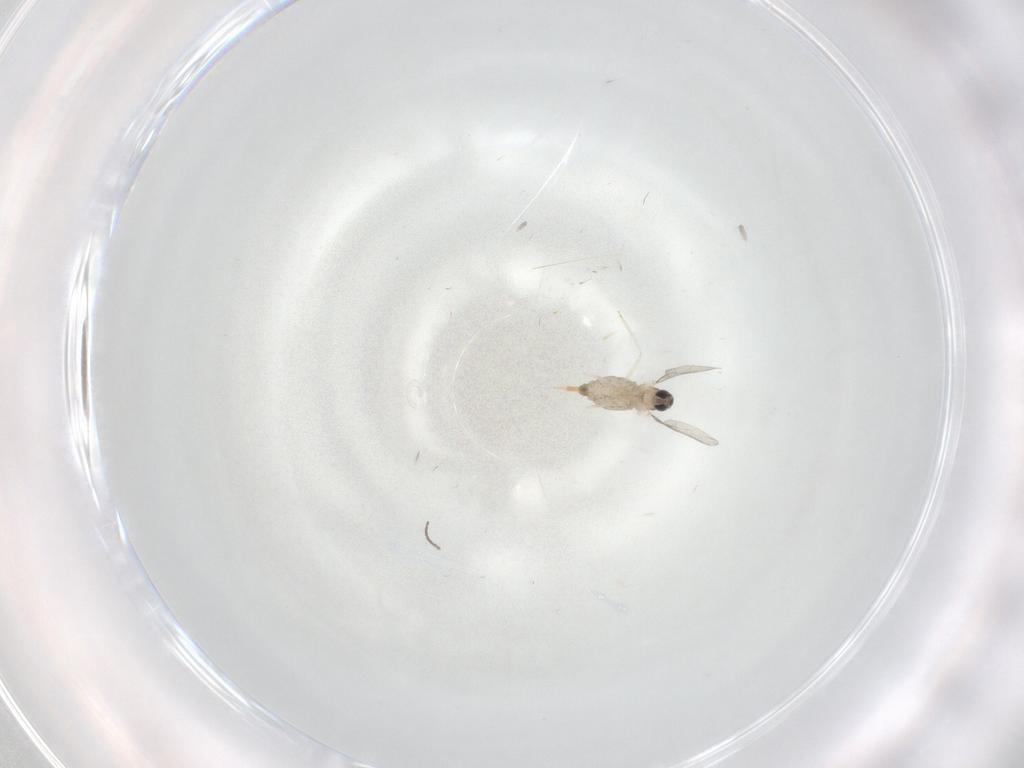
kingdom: Animalia
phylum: Arthropoda
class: Insecta
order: Diptera
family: Cecidomyiidae
